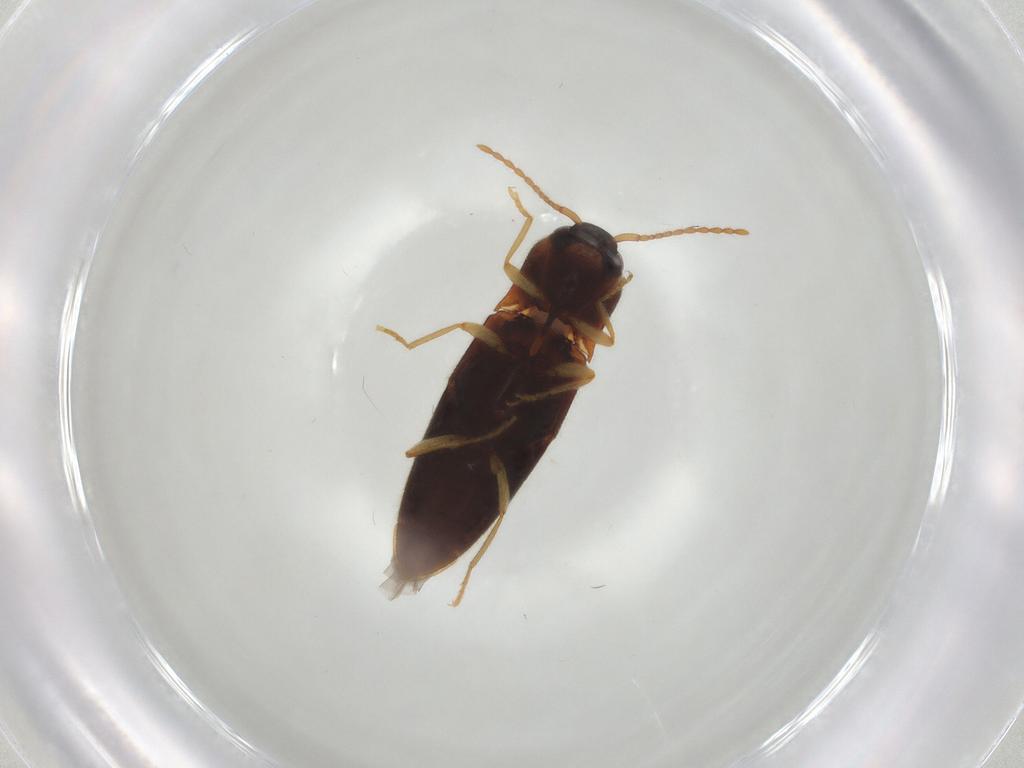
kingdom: Animalia
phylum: Arthropoda
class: Insecta
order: Coleoptera
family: Elateridae
